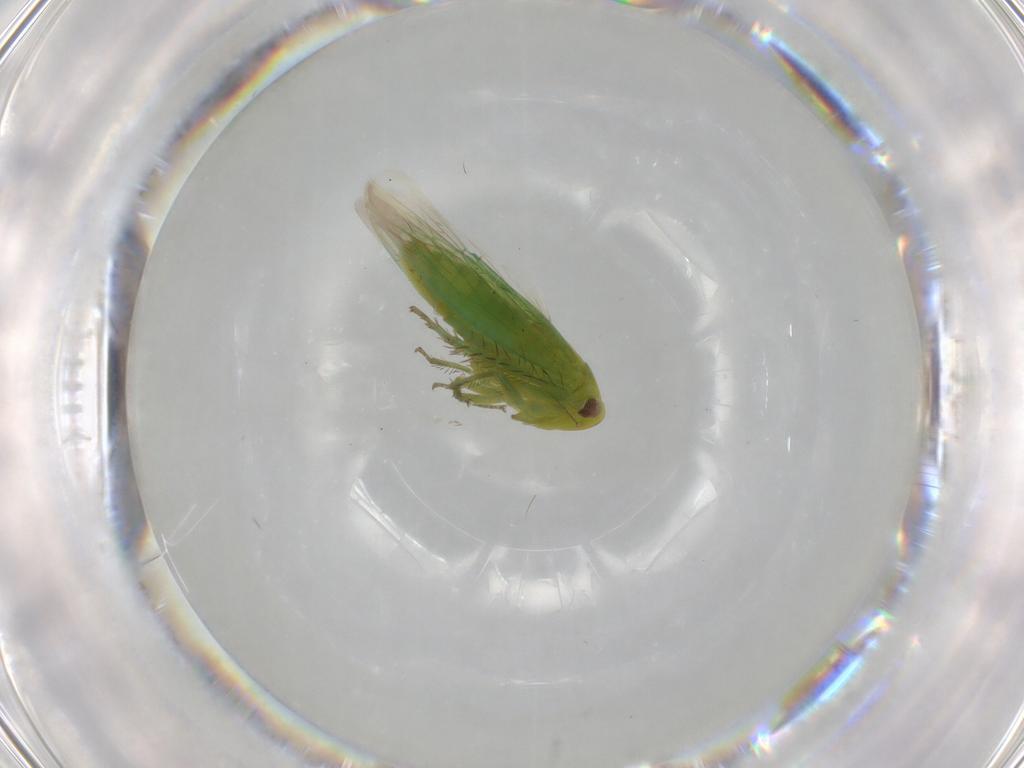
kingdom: Animalia
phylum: Arthropoda
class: Insecta
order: Hemiptera
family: Cicadellidae
